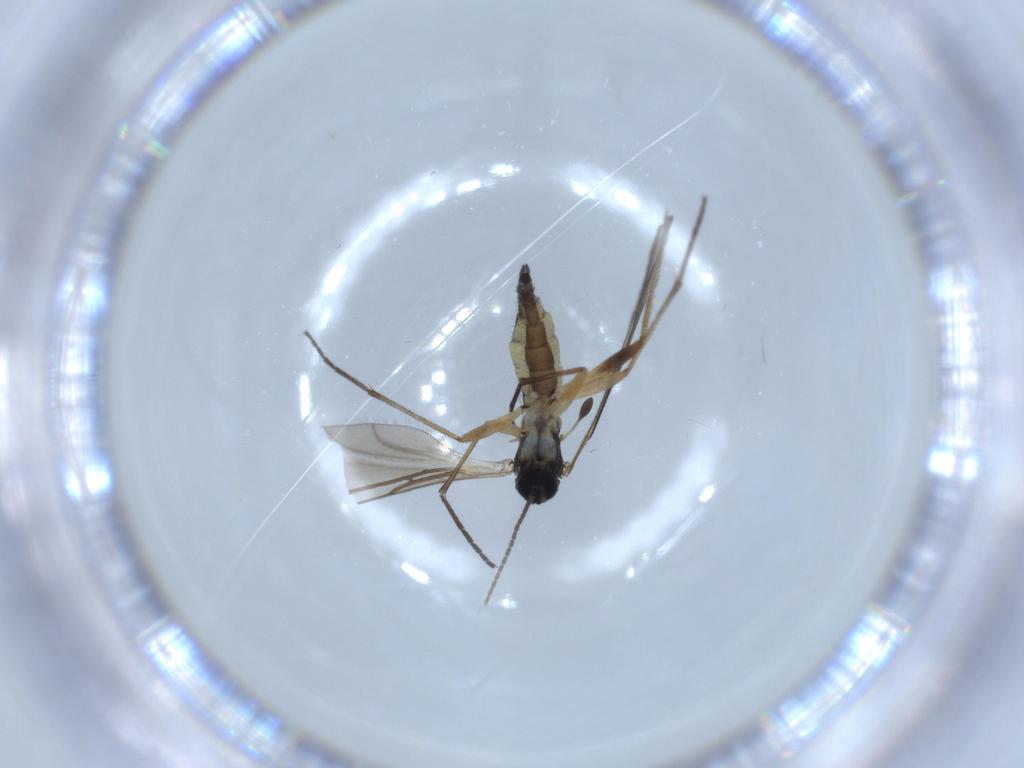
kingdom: Animalia
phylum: Arthropoda
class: Insecta
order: Diptera
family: Sciaridae
